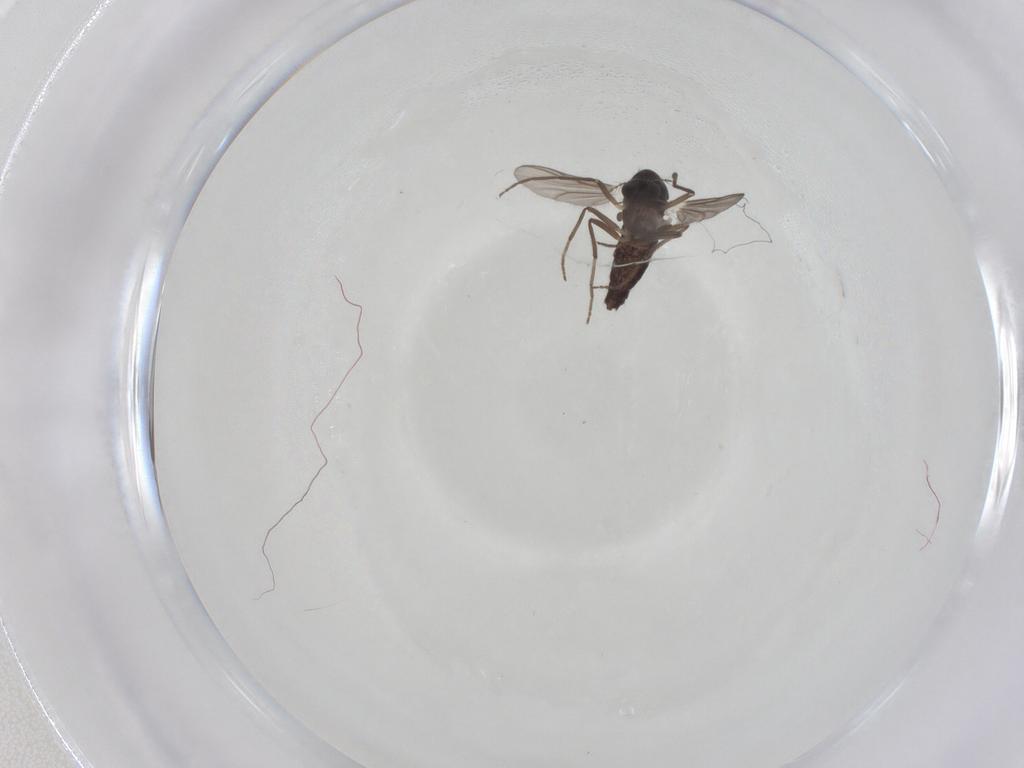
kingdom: Animalia
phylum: Arthropoda
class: Insecta
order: Diptera
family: Chironomidae
